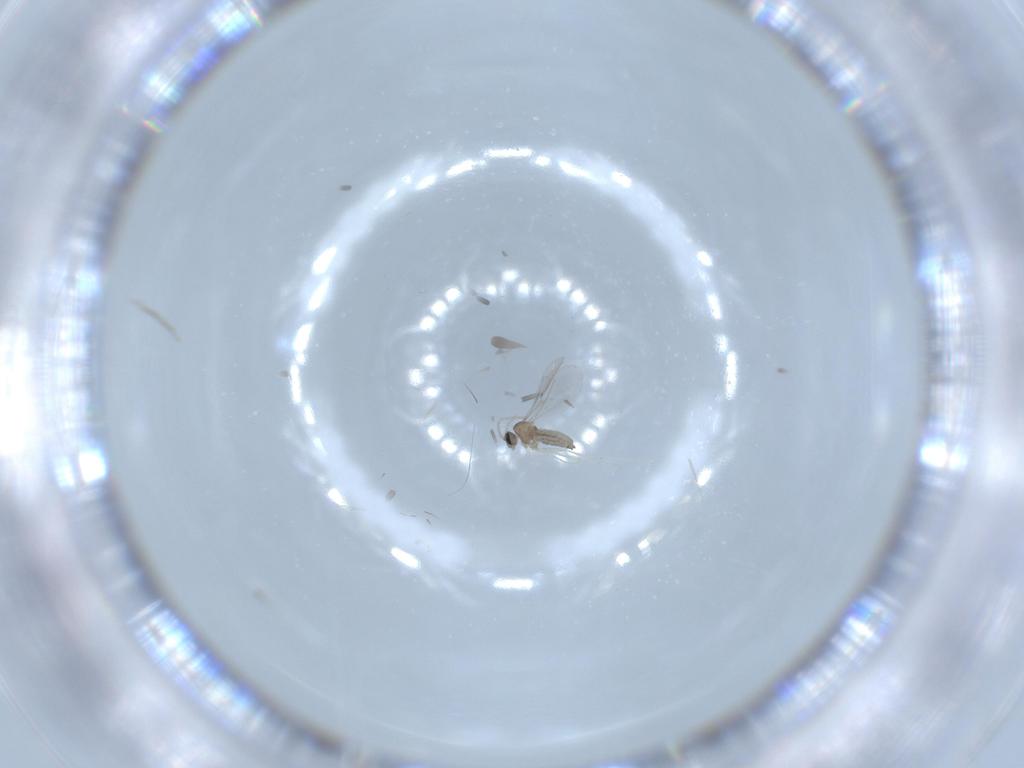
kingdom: Animalia
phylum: Arthropoda
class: Insecta
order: Diptera
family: Cecidomyiidae
